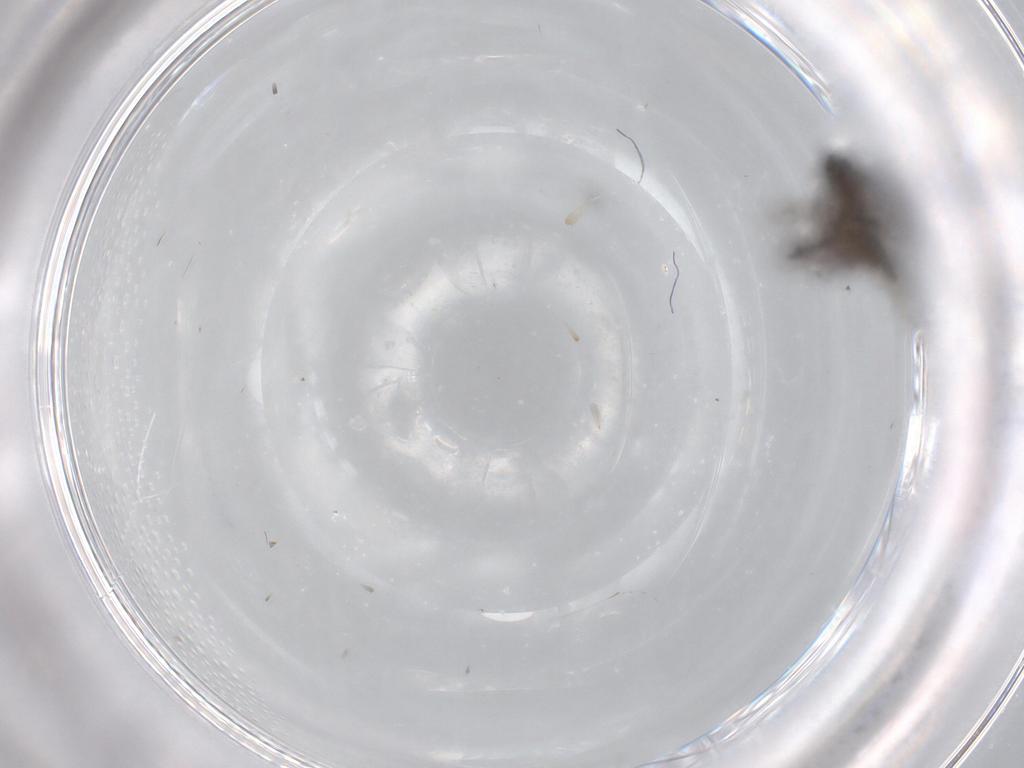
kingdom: Animalia
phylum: Arthropoda
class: Insecta
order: Diptera
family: Sciaridae
